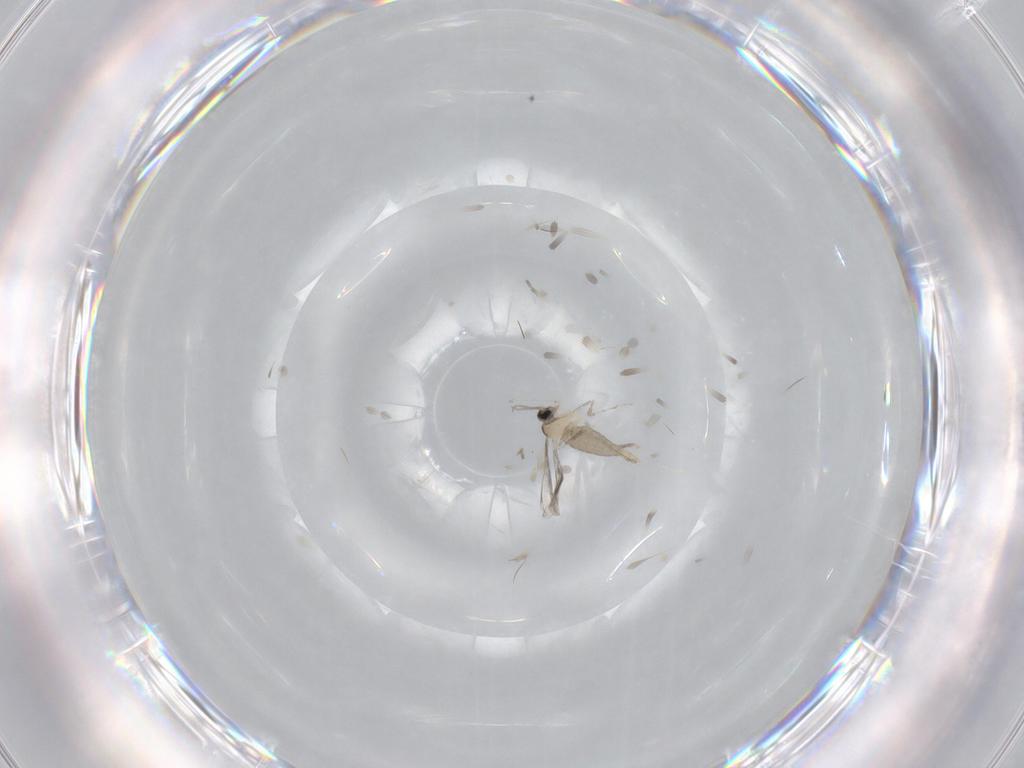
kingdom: Animalia
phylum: Arthropoda
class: Insecta
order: Diptera
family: Cecidomyiidae
